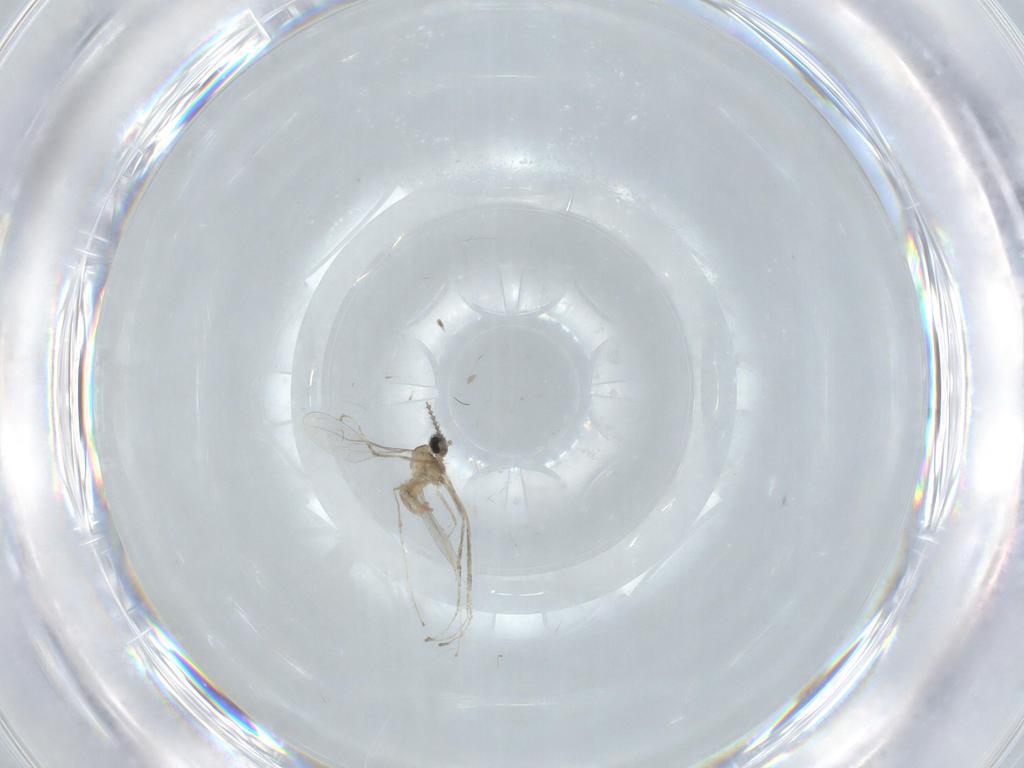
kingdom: Animalia
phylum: Arthropoda
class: Insecta
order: Diptera
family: Cecidomyiidae
